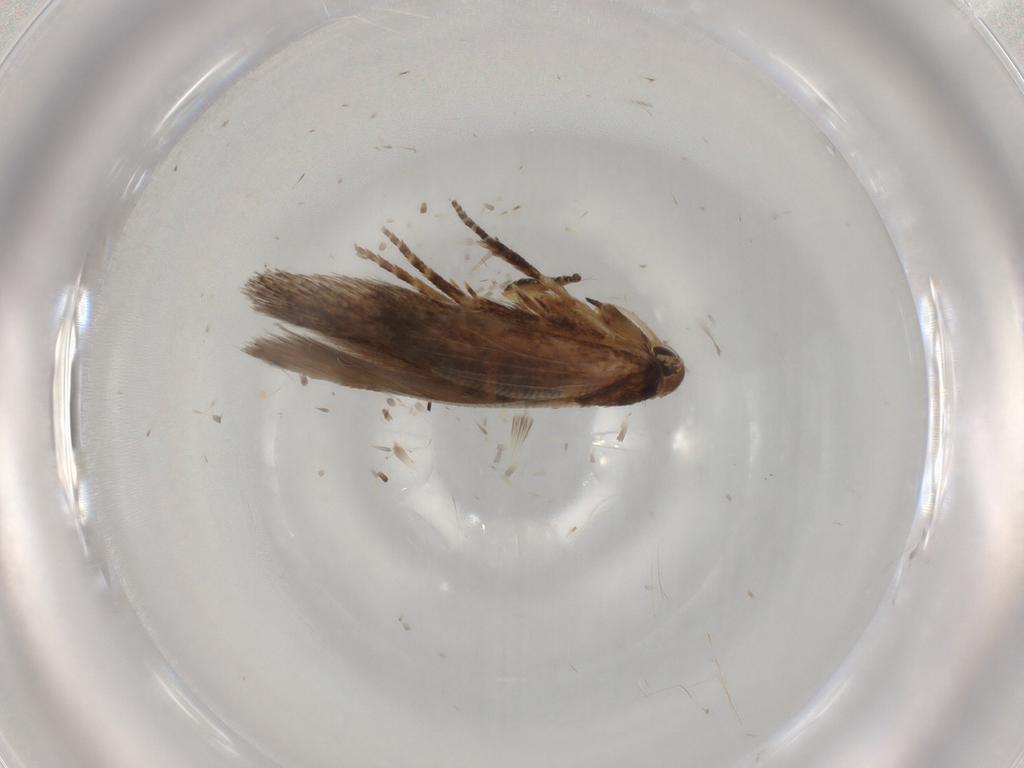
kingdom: Animalia
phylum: Arthropoda
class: Insecta
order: Lepidoptera
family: Cosmopterigidae
